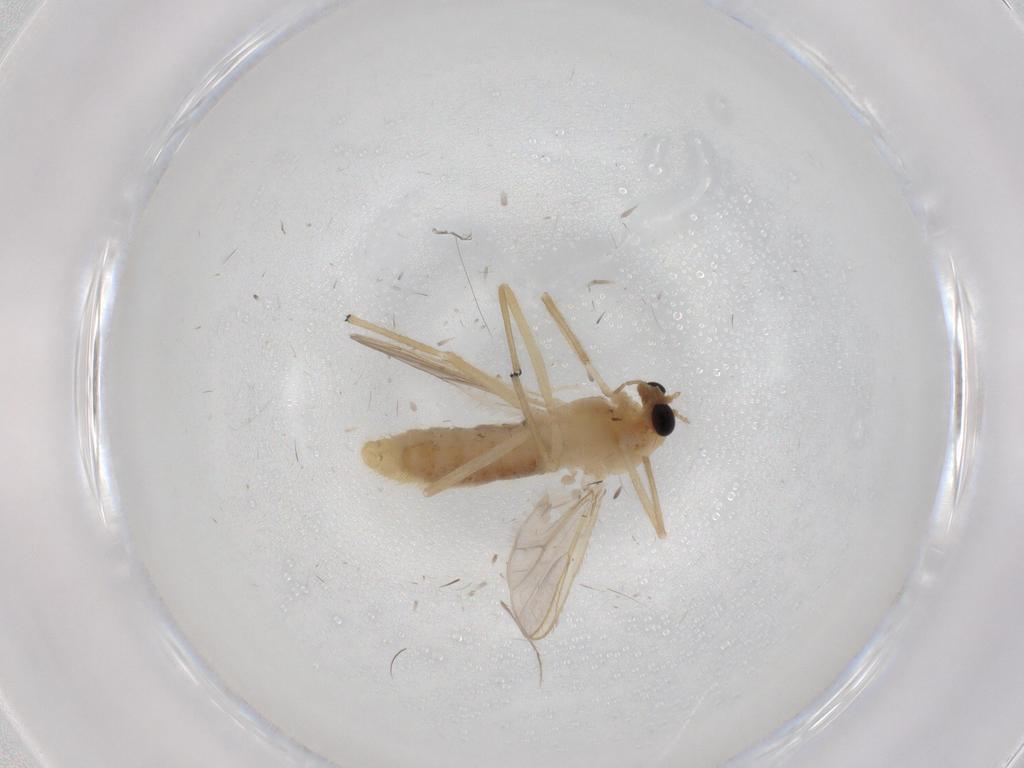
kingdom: Animalia
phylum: Arthropoda
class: Insecta
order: Diptera
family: Chironomidae
